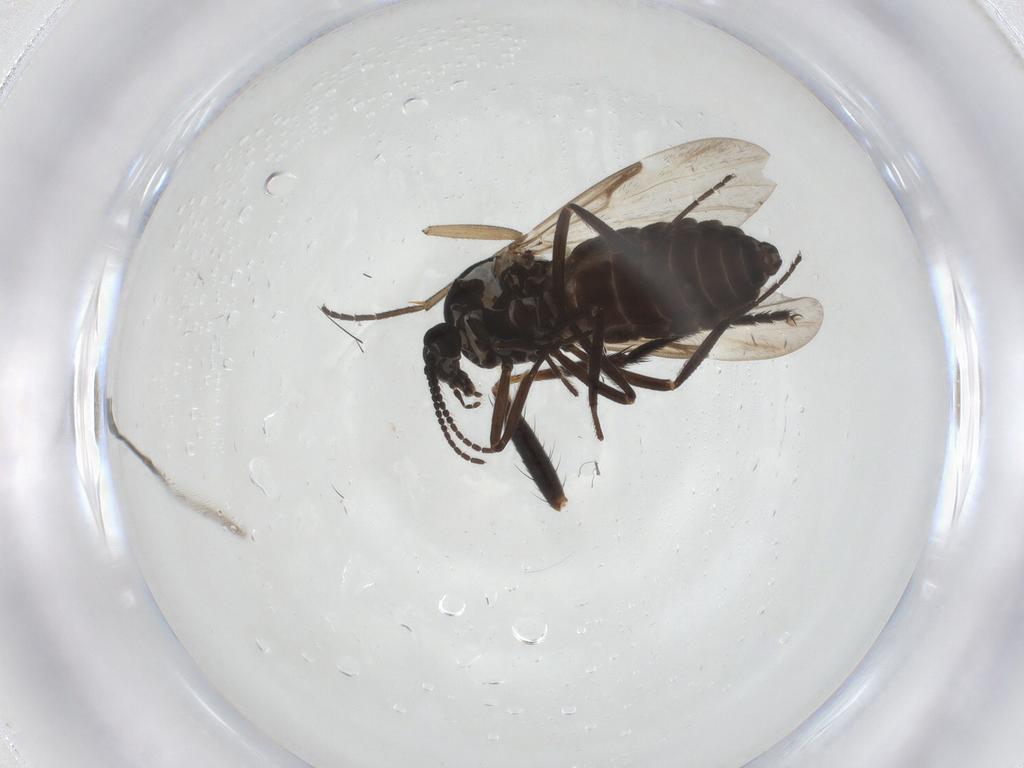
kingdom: Animalia
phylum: Arthropoda
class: Insecta
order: Diptera
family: Anthomyiidae
